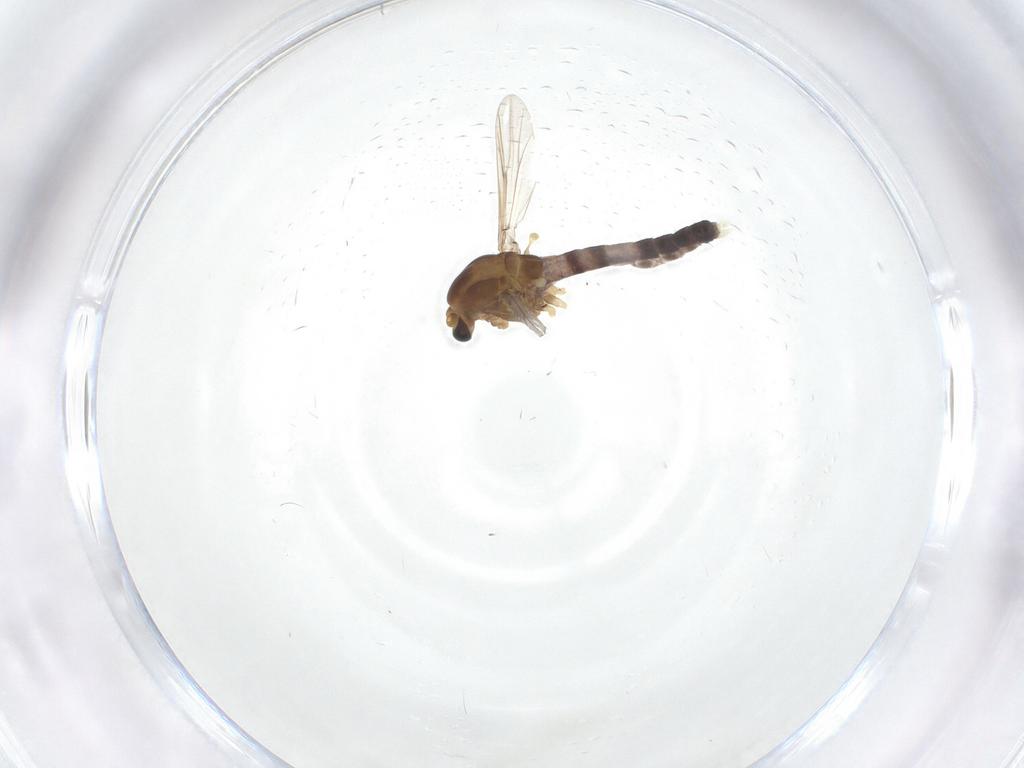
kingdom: Animalia
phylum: Arthropoda
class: Insecta
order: Diptera
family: Chironomidae
